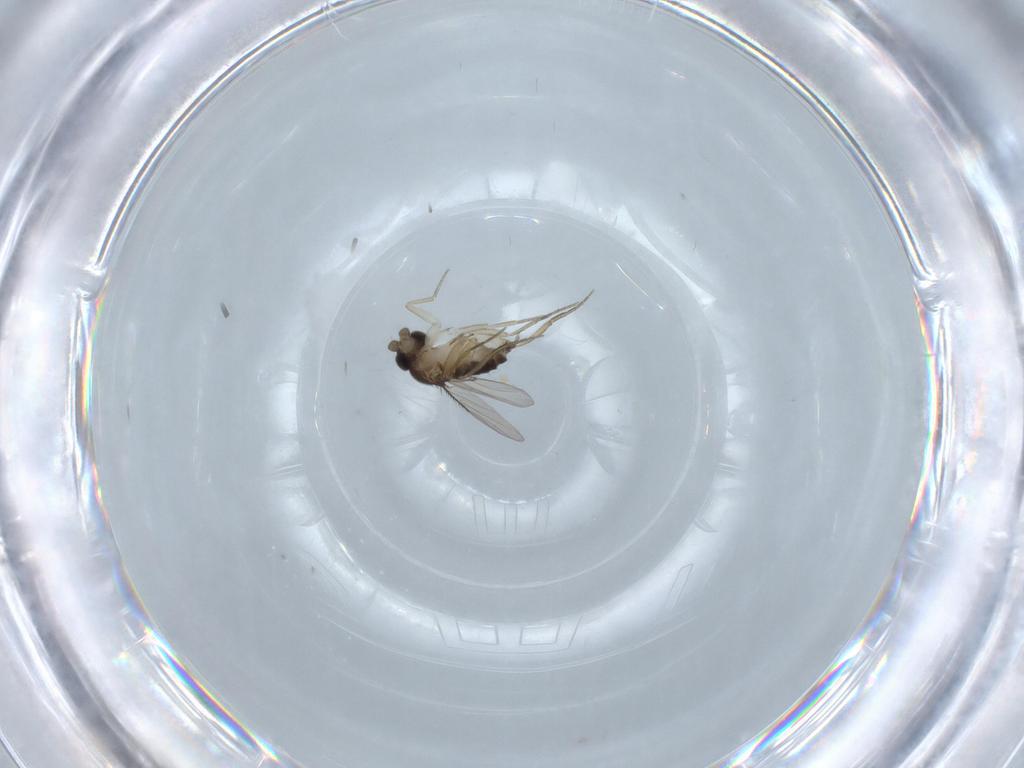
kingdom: Animalia
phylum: Arthropoda
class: Insecta
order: Diptera
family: Phoridae
